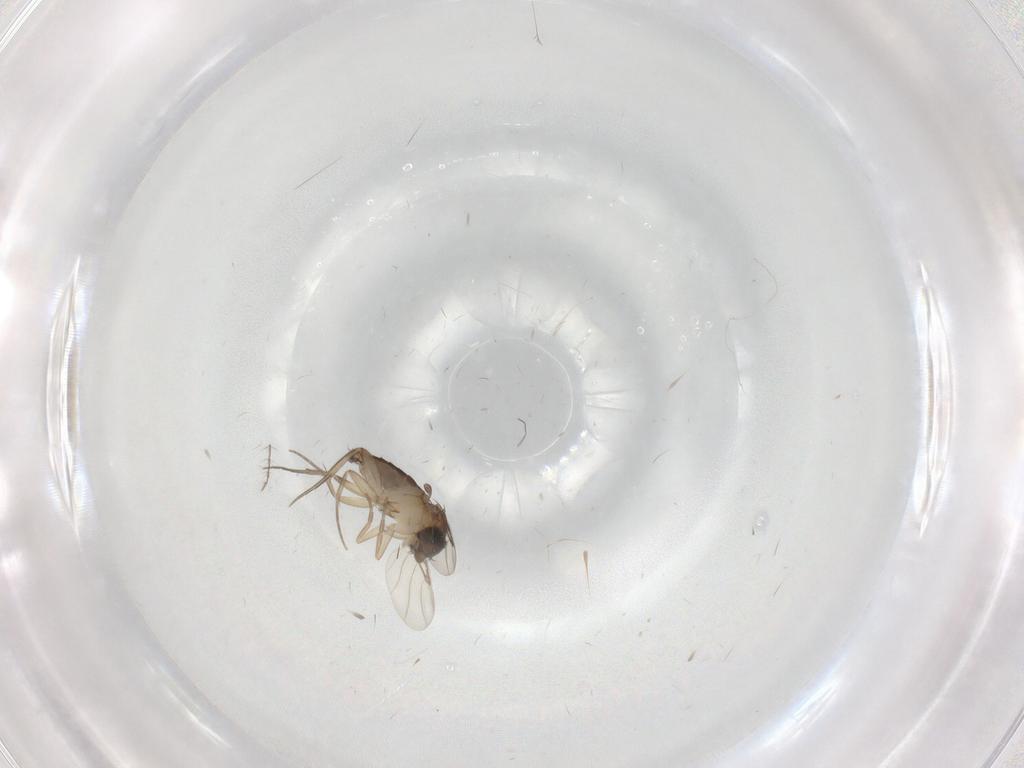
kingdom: Animalia
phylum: Arthropoda
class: Insecta
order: Diptera
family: Phoridae
